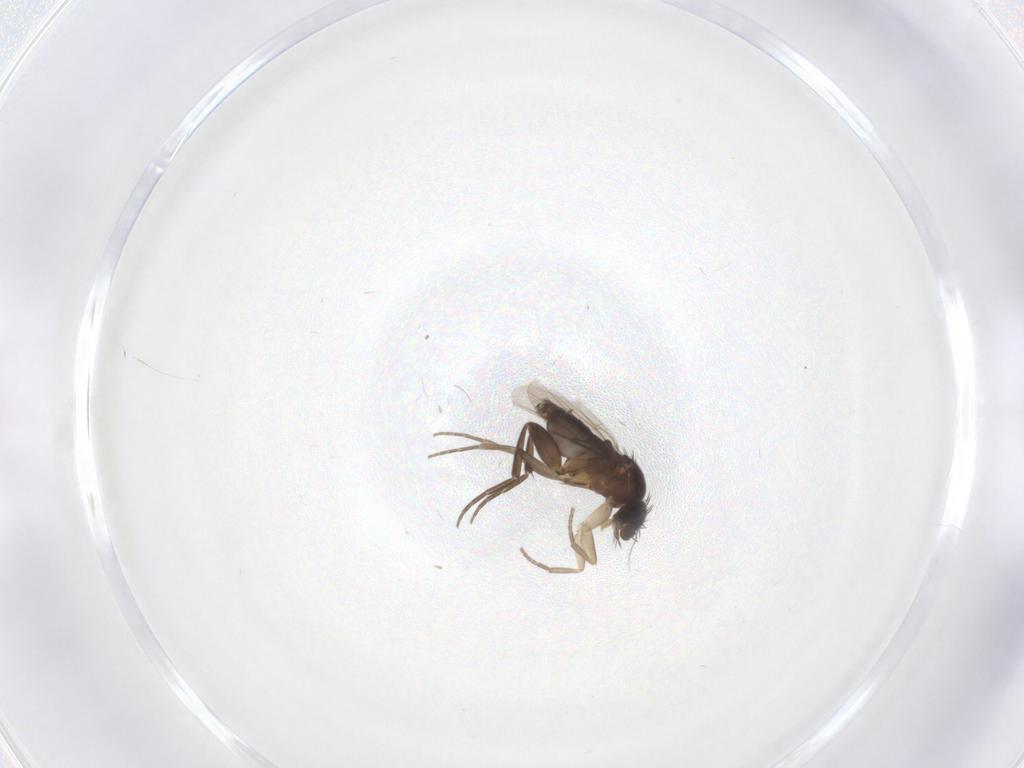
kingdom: Animalia
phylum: Arthropoda
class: Insecta
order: Diptera
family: Chironomidae
